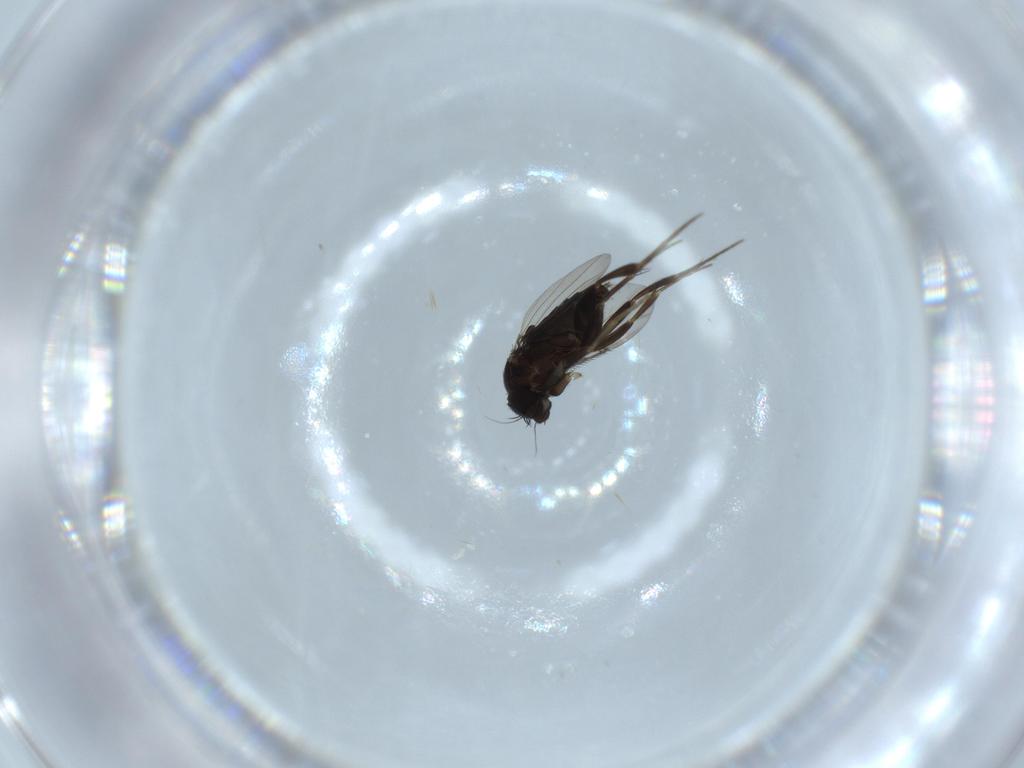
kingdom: Animalia
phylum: Arthropoda
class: Insecta
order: Diptera
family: Phoridae
